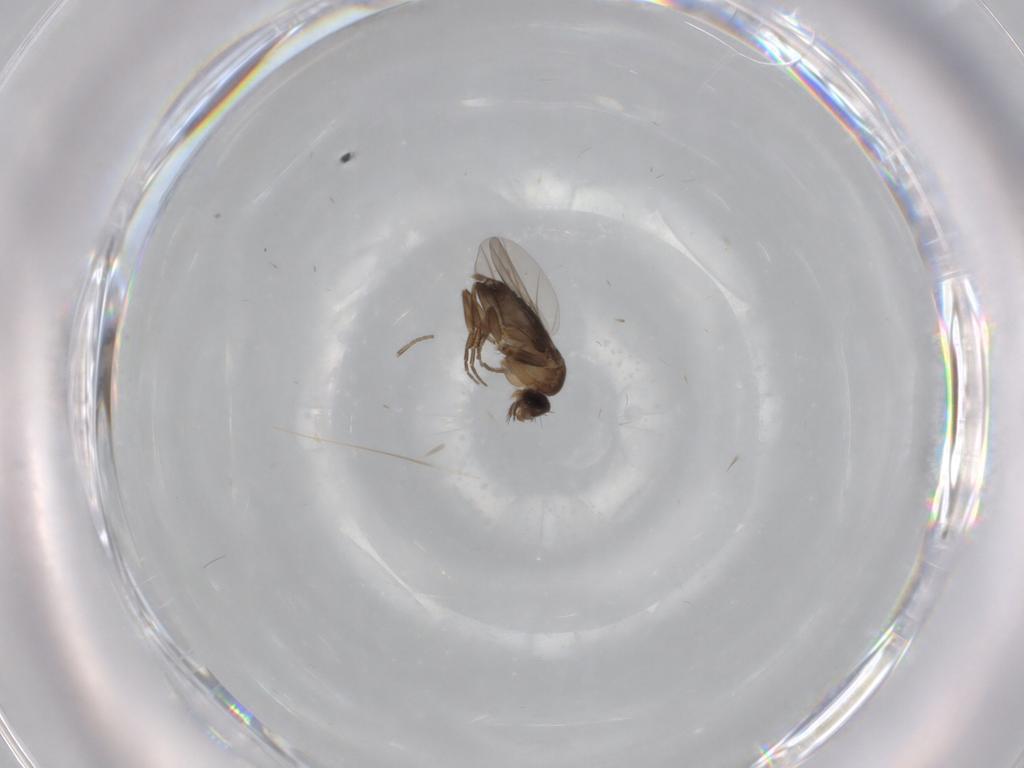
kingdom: Animalia
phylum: Arthropoda
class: Insecta
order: Diptera
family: Phoridae
